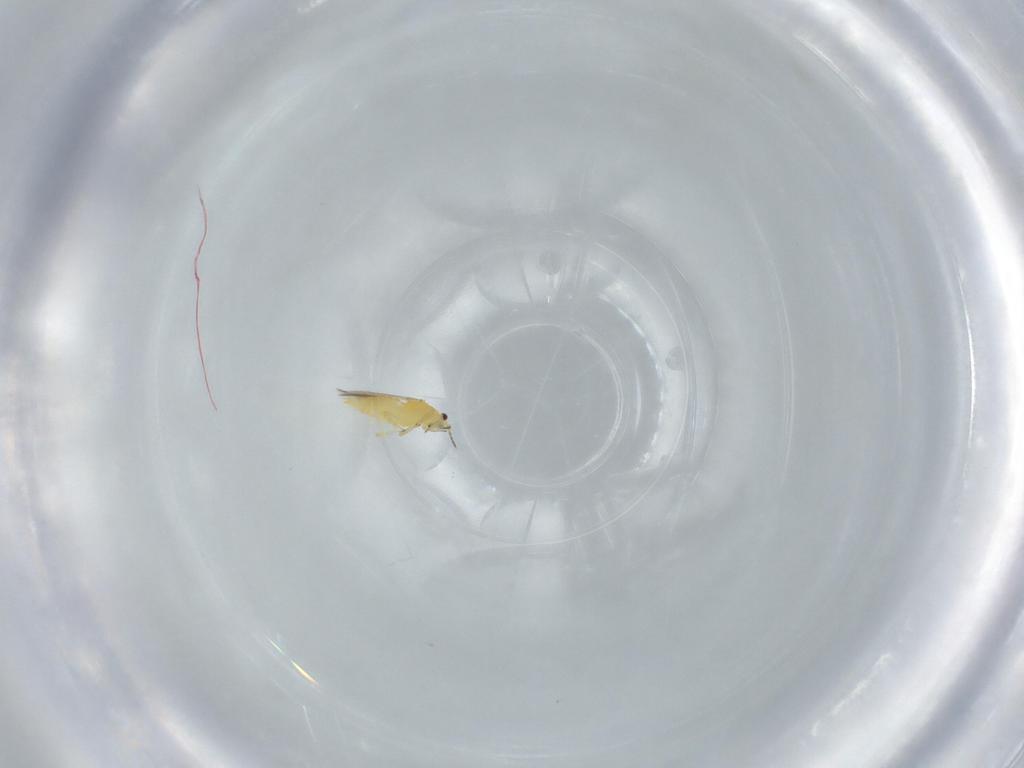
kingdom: Animalia
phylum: Arthropoda
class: Insecta
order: Thysanoptera
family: Thripidae
